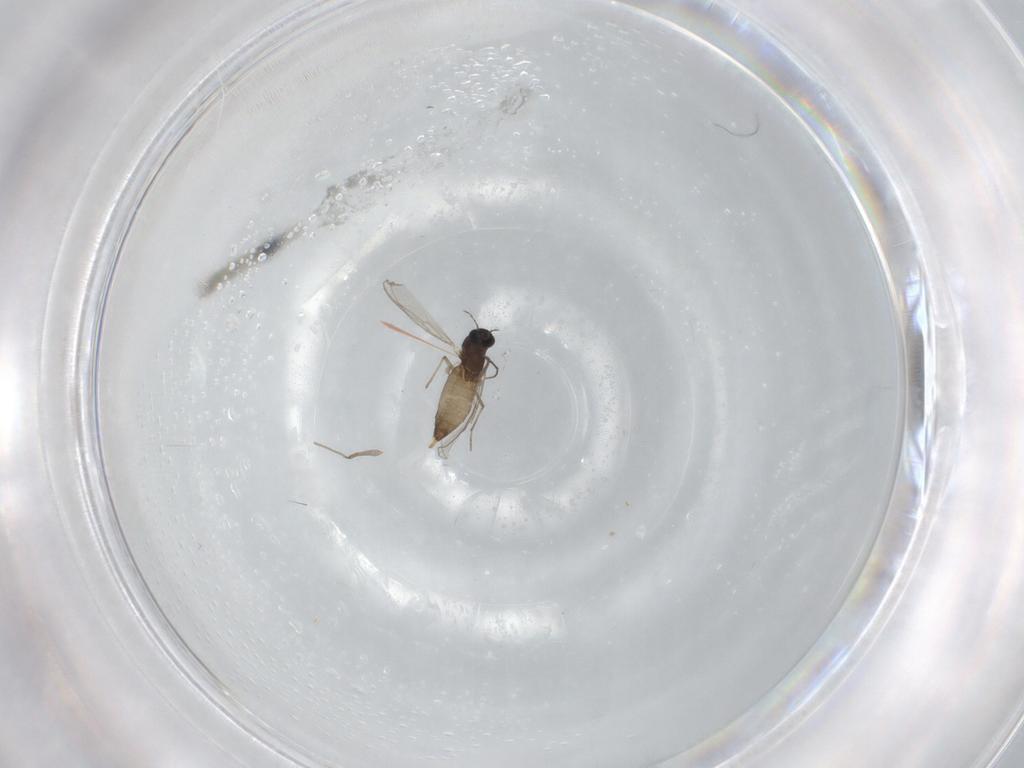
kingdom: Animalia
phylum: Arthropoda
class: Insecta
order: Diptera
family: Chironomidae
